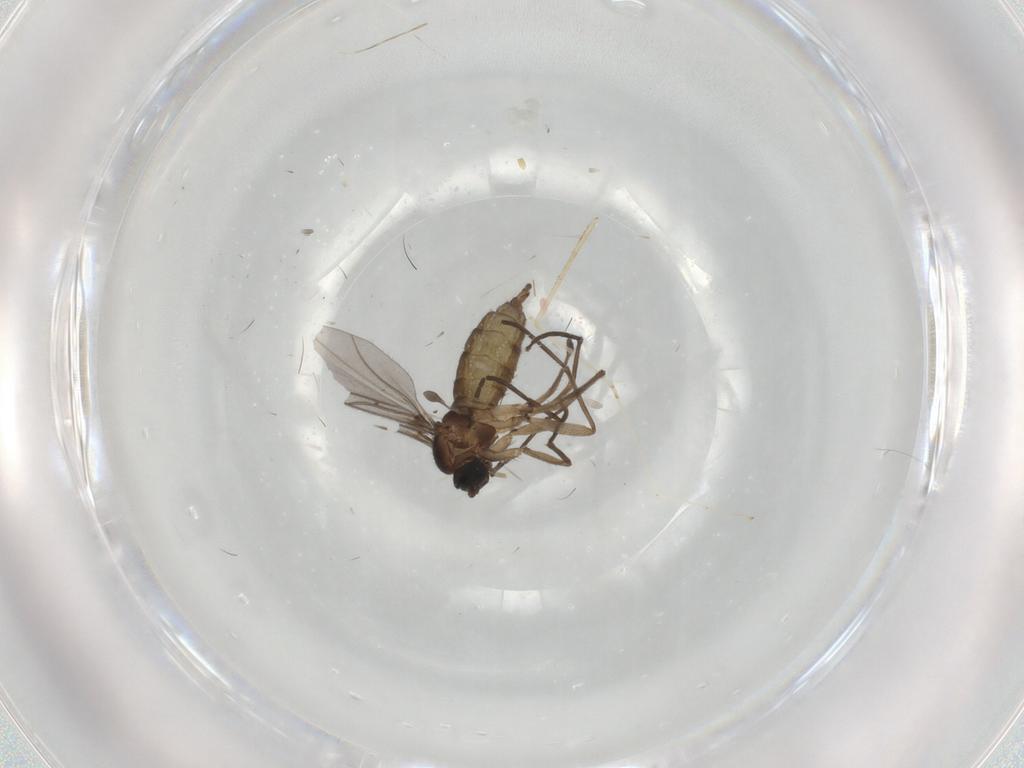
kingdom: Animalia
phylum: Arthropoda
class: Insecta
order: Diptera
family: Sciaridae
